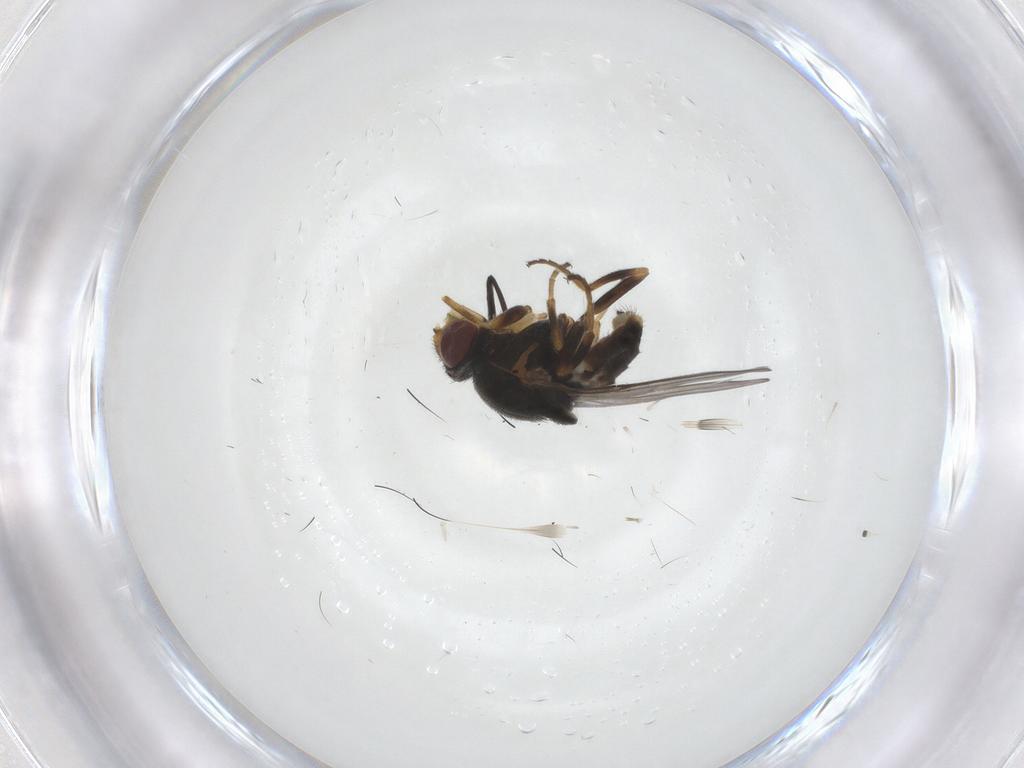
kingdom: Animalia
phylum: Arthropoda
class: Insecta
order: Diptera
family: Chloropidae
